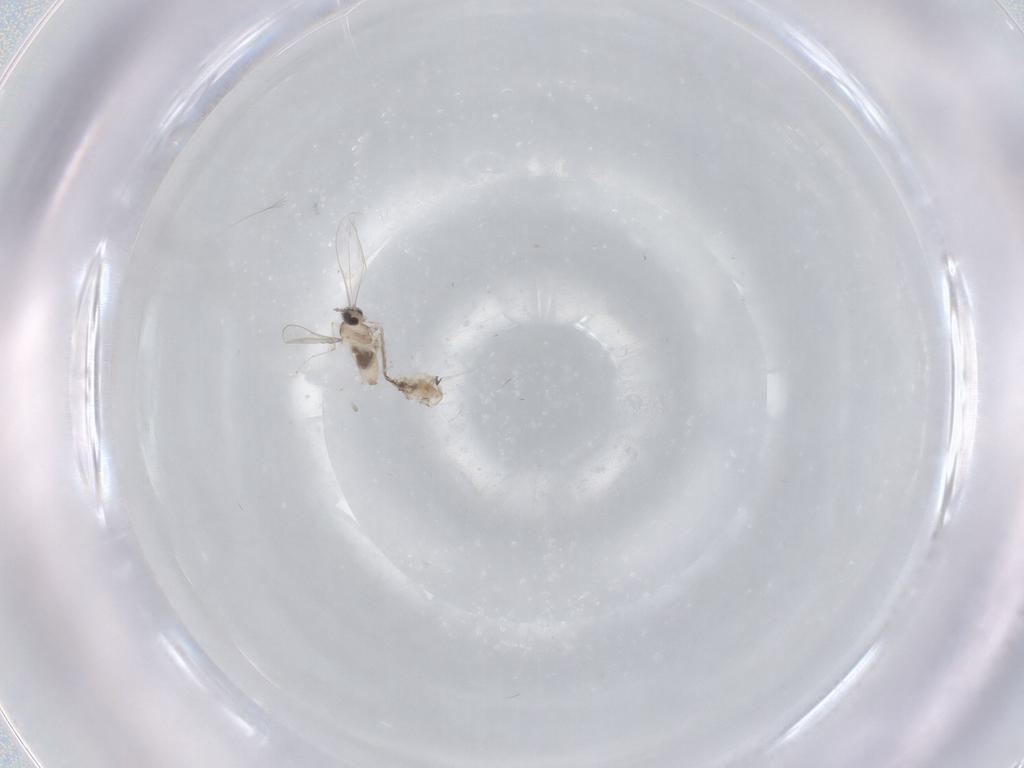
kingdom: Animalia
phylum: Arthropoda
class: Insecta
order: Diptera
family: Cecidomyiidae
